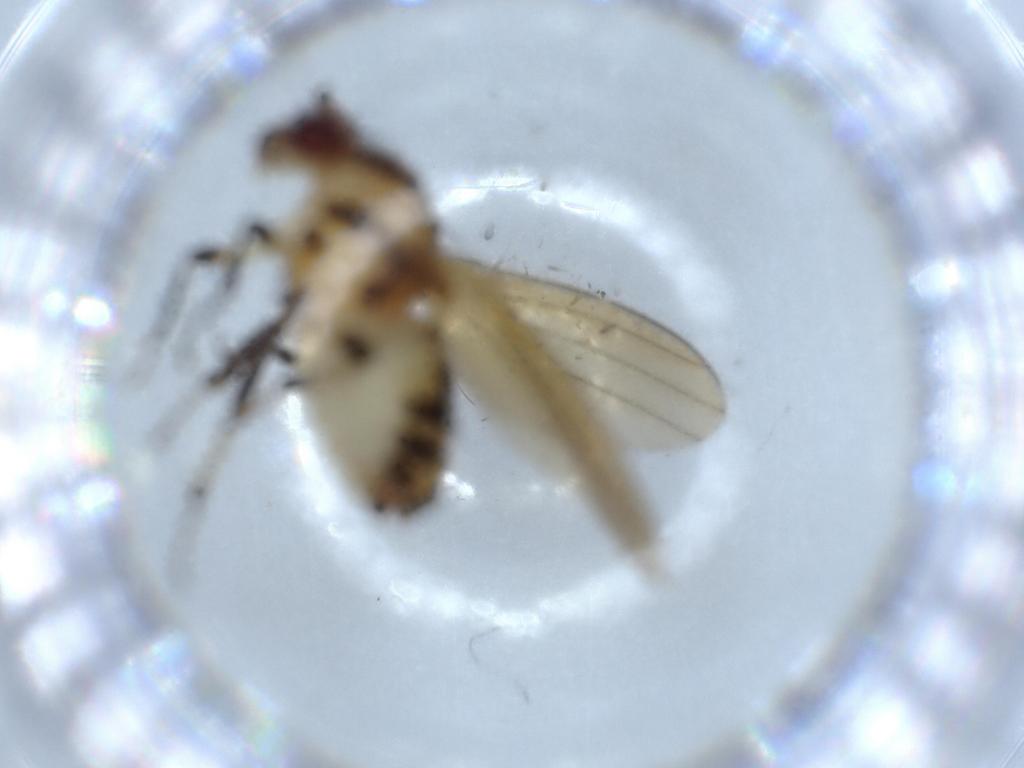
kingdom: Animalia
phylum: Arthropoda
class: Insecta
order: Diptera
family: Lauxaniidae
